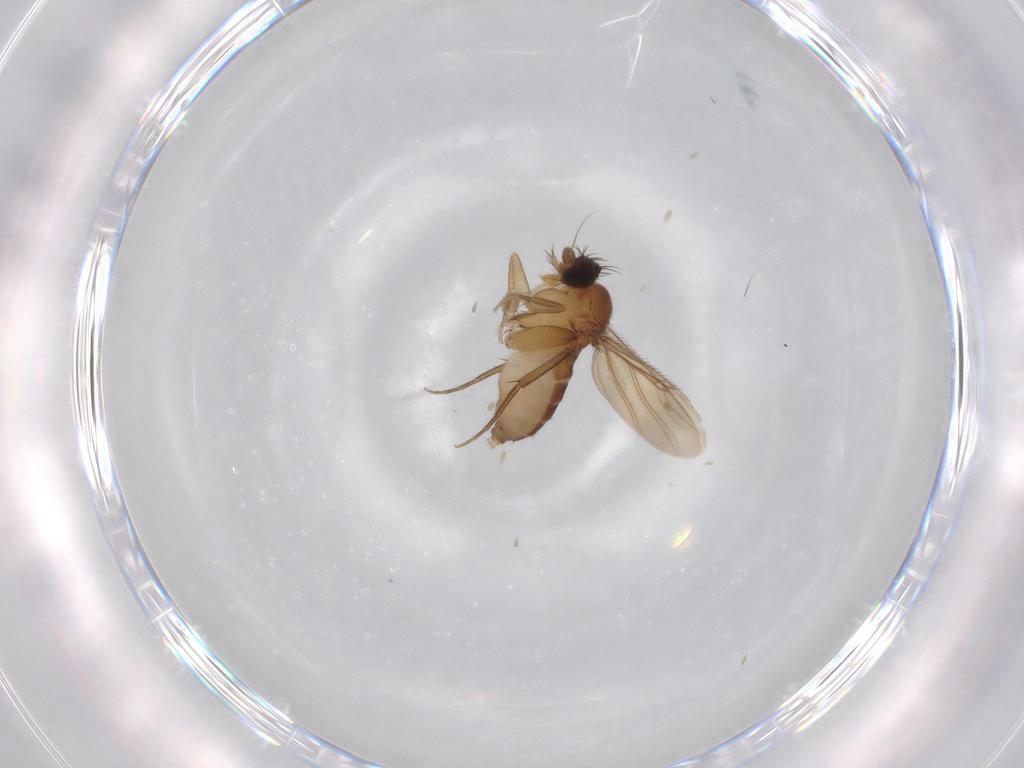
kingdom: Animalia
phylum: Arthropoda
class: Insecta
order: Diptera
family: Phoridae
